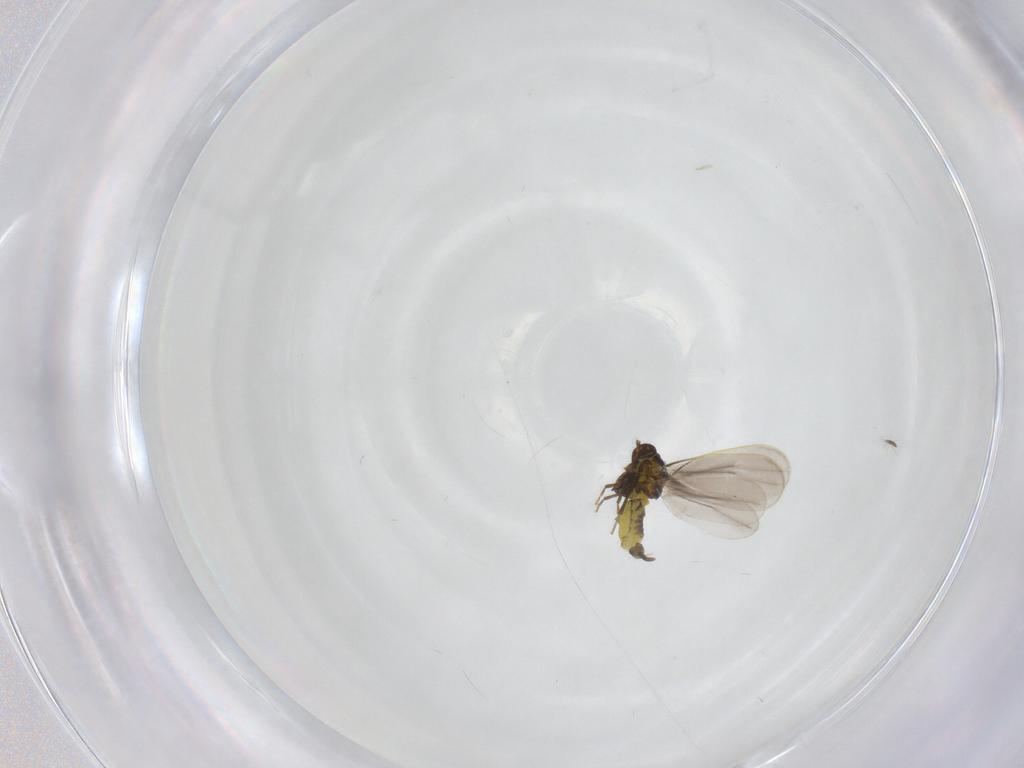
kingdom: Animalia
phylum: Arthropoda
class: Insecta
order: Hemiptera
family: Aleyrodidae
